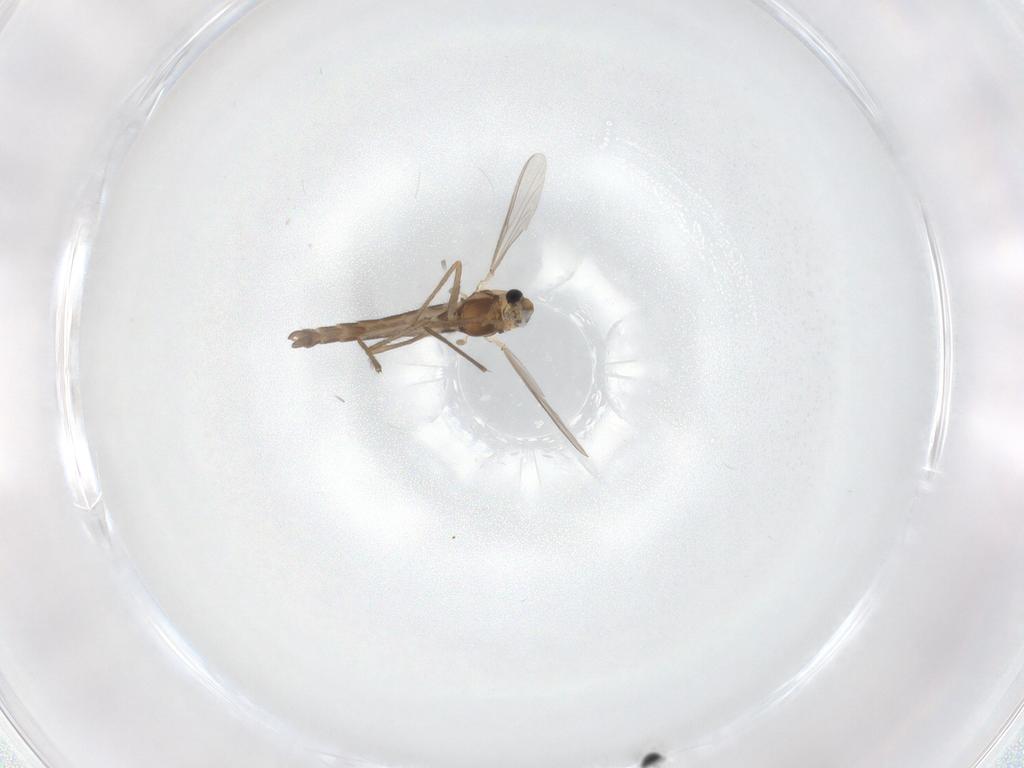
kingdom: Animalia
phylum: Arthropoda
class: Insecta
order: Diptera
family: Chironomidae
